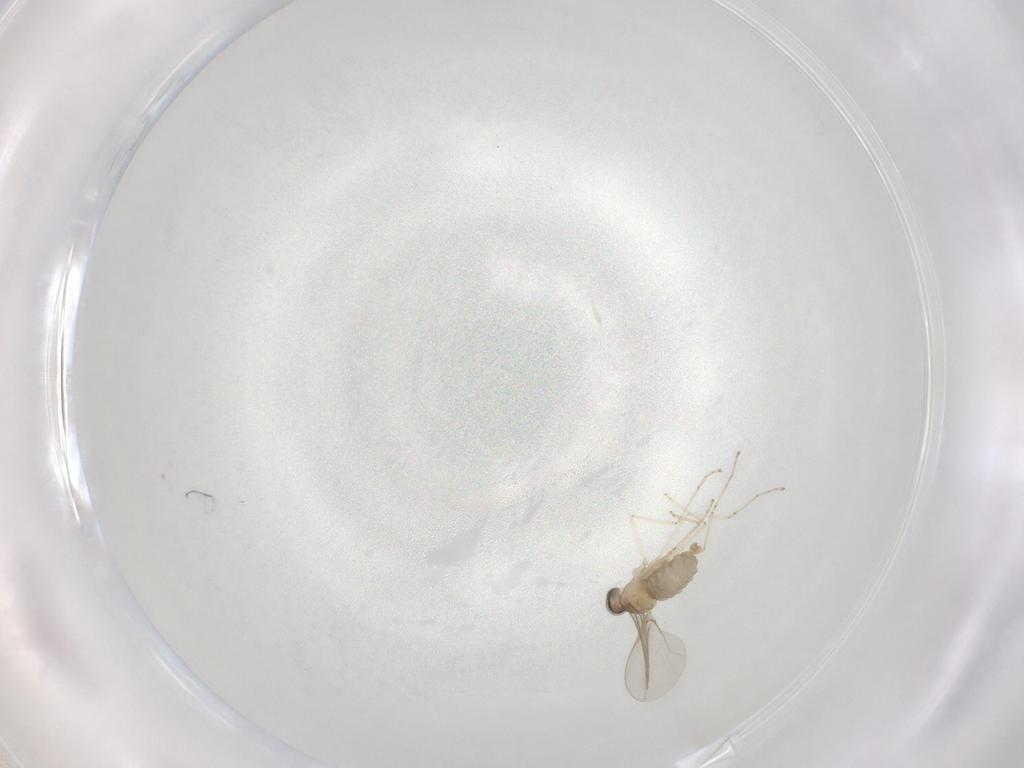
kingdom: Animalia
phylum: Arthropoda
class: Insecta
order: Diptera
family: Cecidomyiidae
